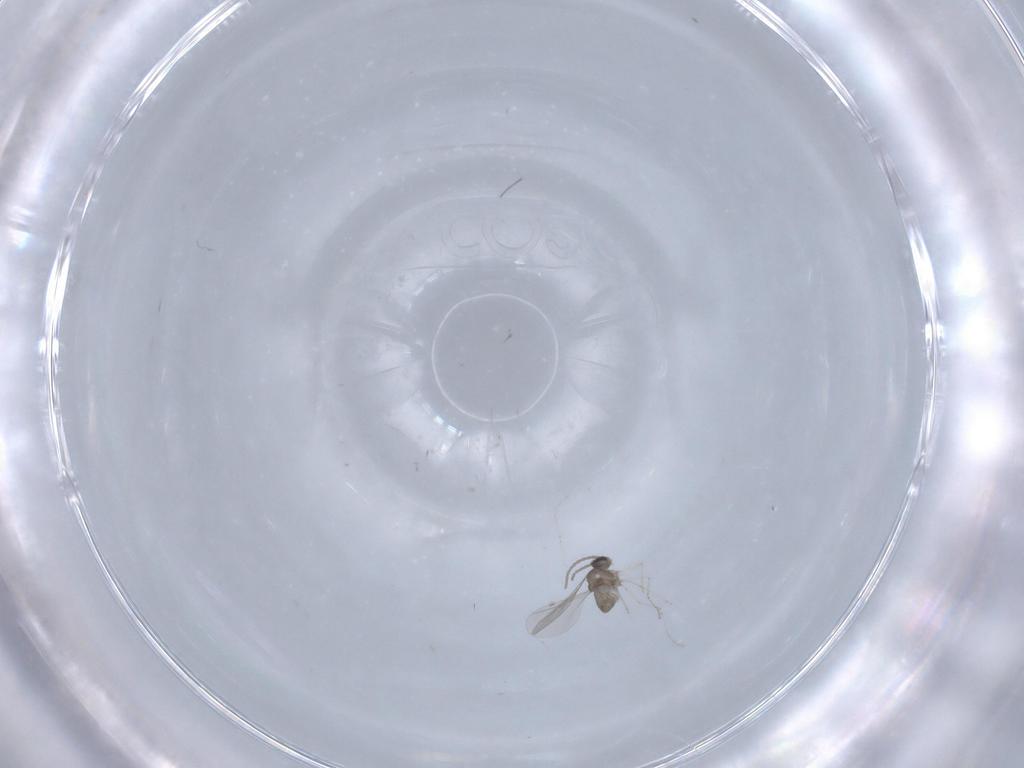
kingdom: Animalia
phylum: Arthropoda
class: Insecta
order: Diptera
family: Cecidomyiidae
